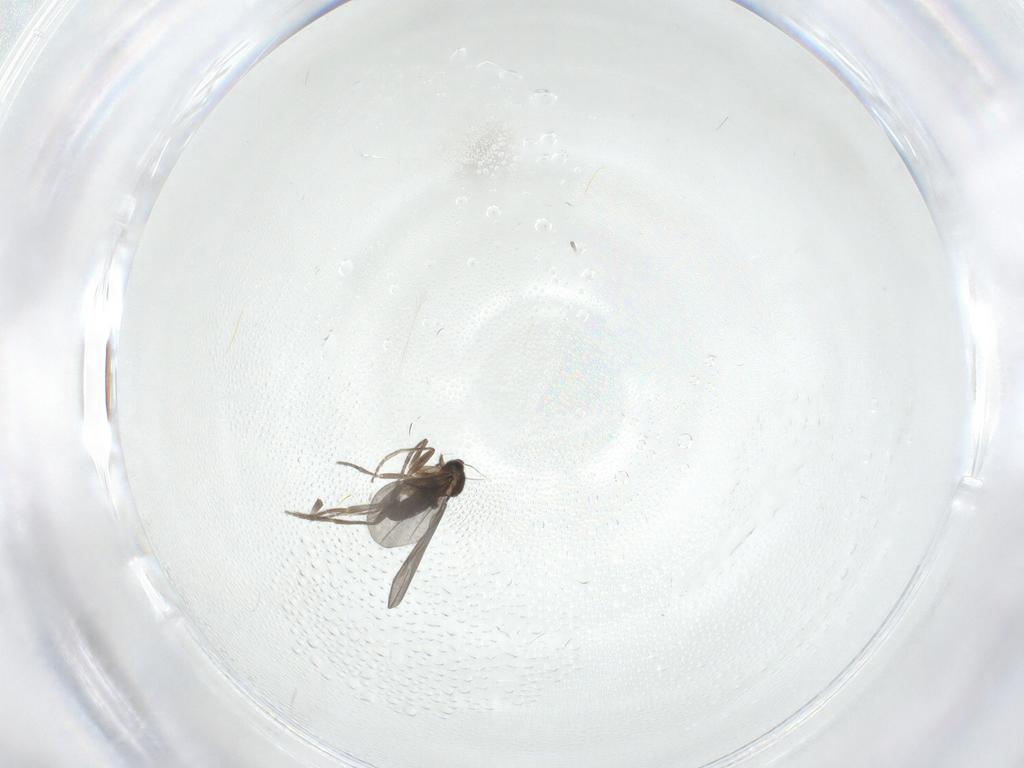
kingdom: Animalia
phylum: Arthropoda
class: Insecta
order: Diptera
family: Phoridae
